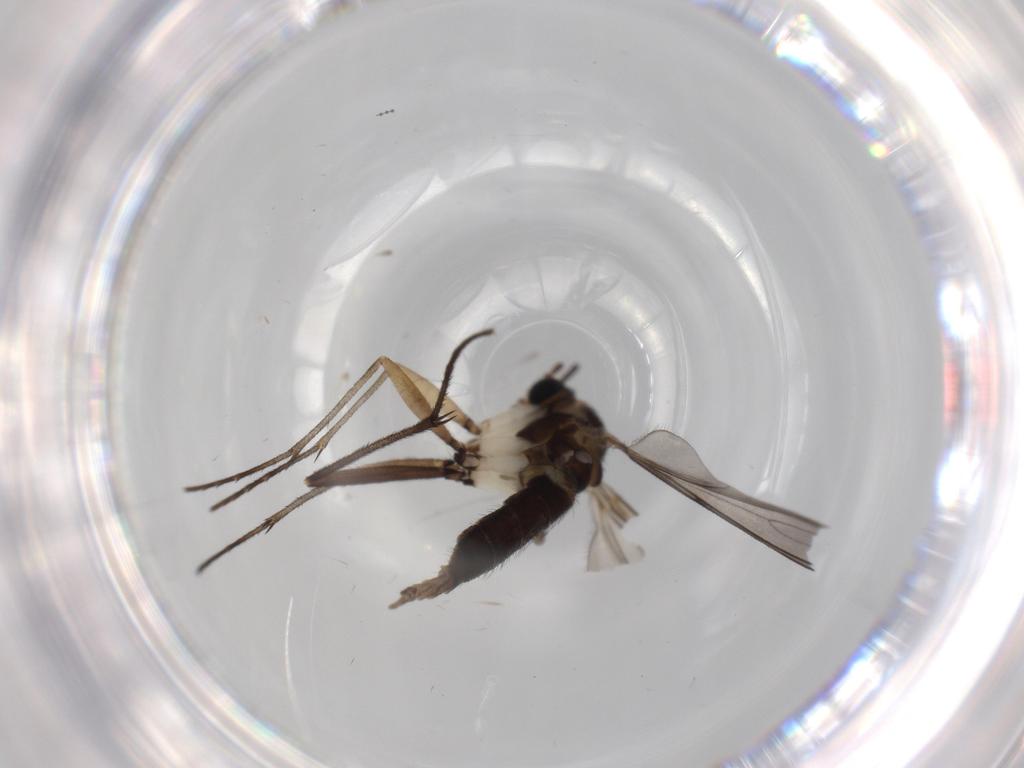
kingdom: Animalia
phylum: Arthropoda
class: Insecta
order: Diptera
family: Sciaridae
